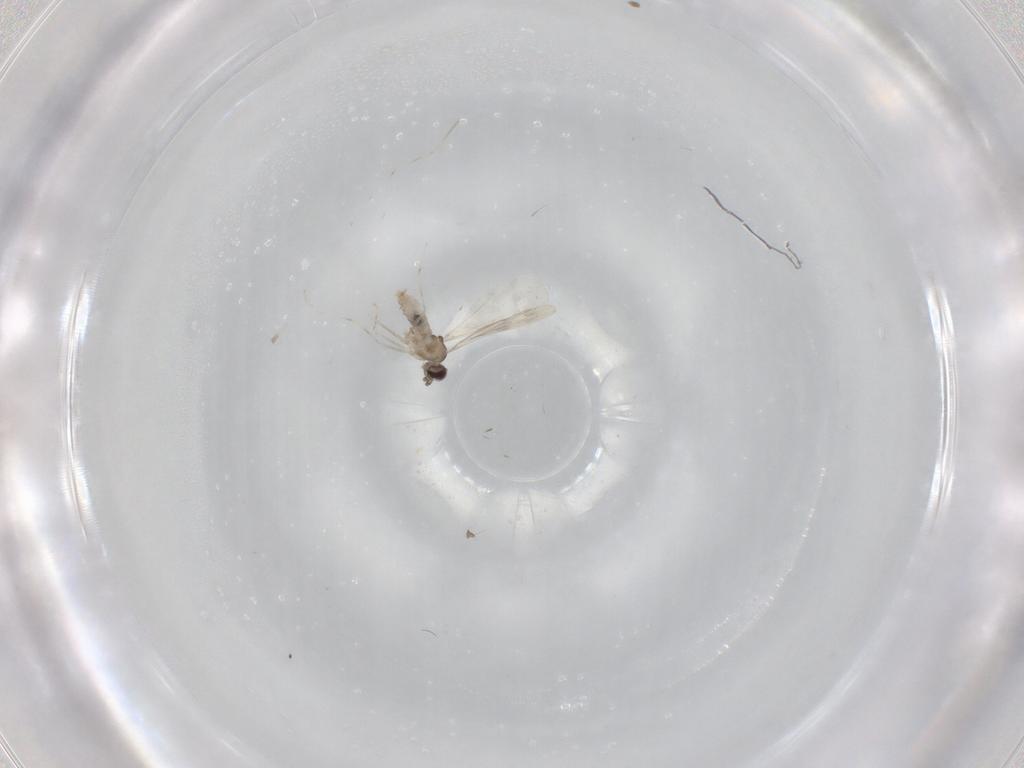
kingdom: Animalia
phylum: Arthropoda
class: Insecta
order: Diptera
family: Cecidomyiidae
